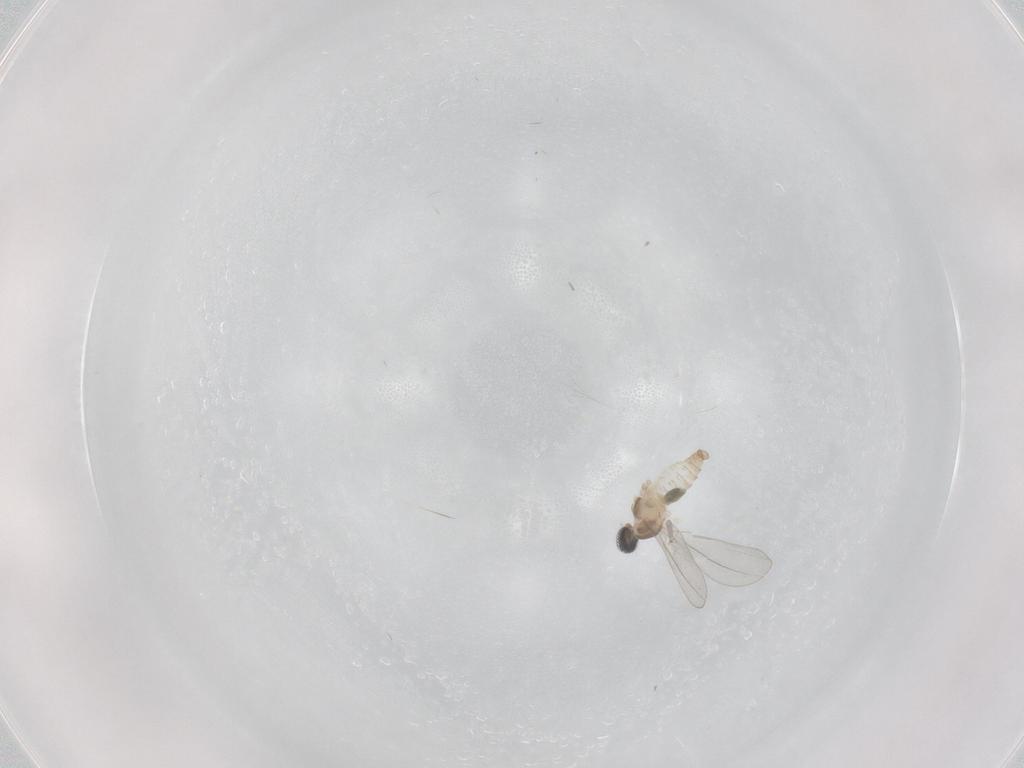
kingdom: Animalia
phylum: Arthropoda
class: Insecta
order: Diptera
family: Cecidomyiidae
